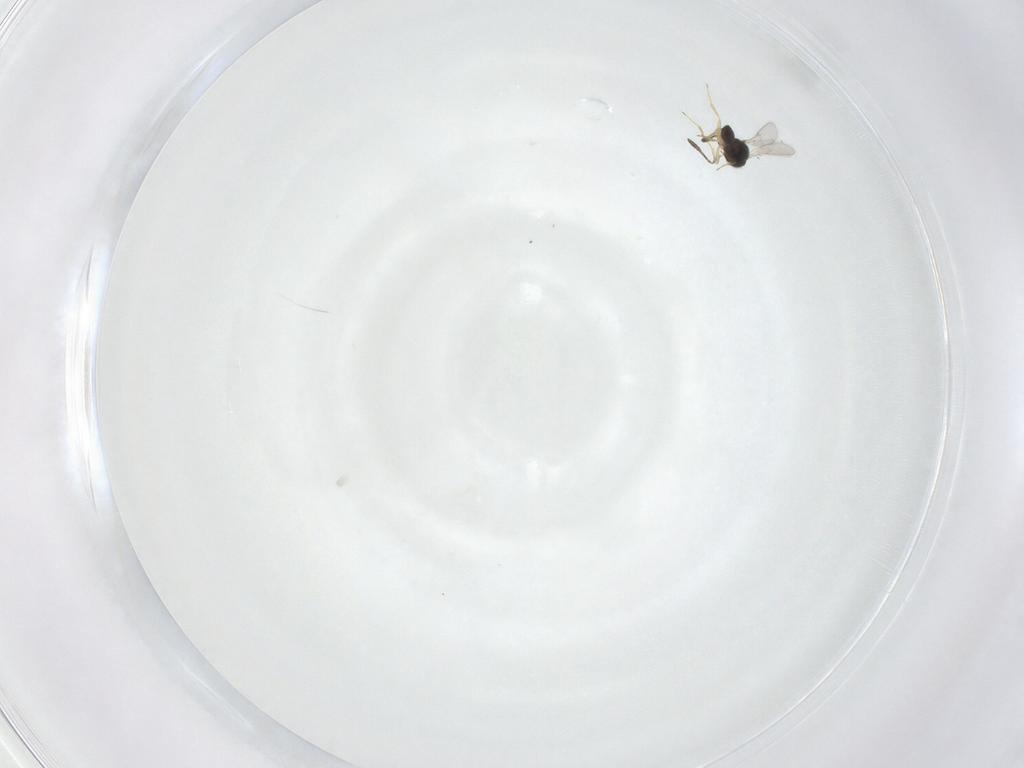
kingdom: Animalia
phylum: Arthropoda
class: Insecta
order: Hymenoptera
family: Scelionidae
